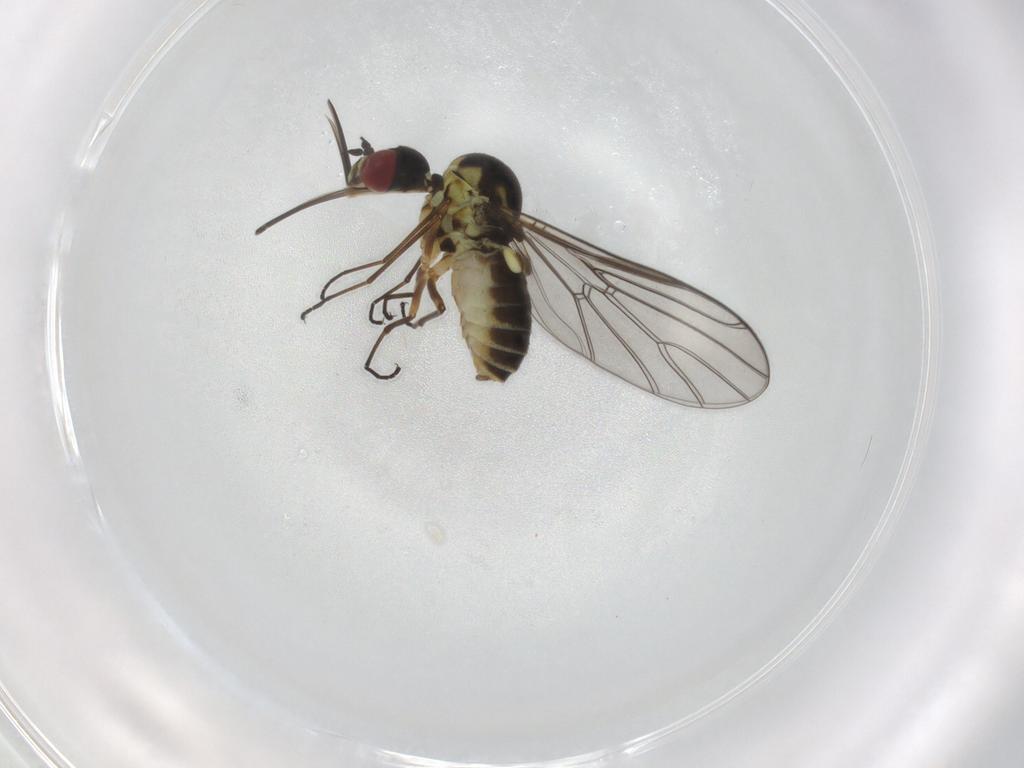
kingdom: Animalia
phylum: Arthropoda
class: Insecta
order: Diptera
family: Sciaridae
